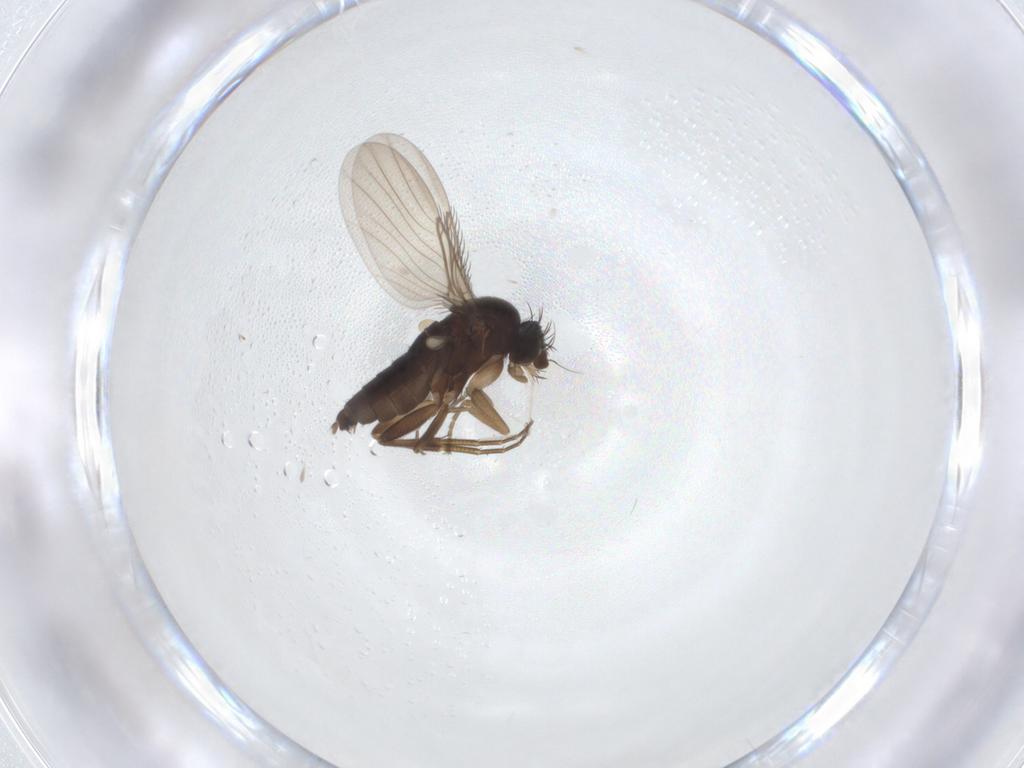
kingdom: Animalia
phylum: Arthropoda
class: Insecta
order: Diptera
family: Phoridae
